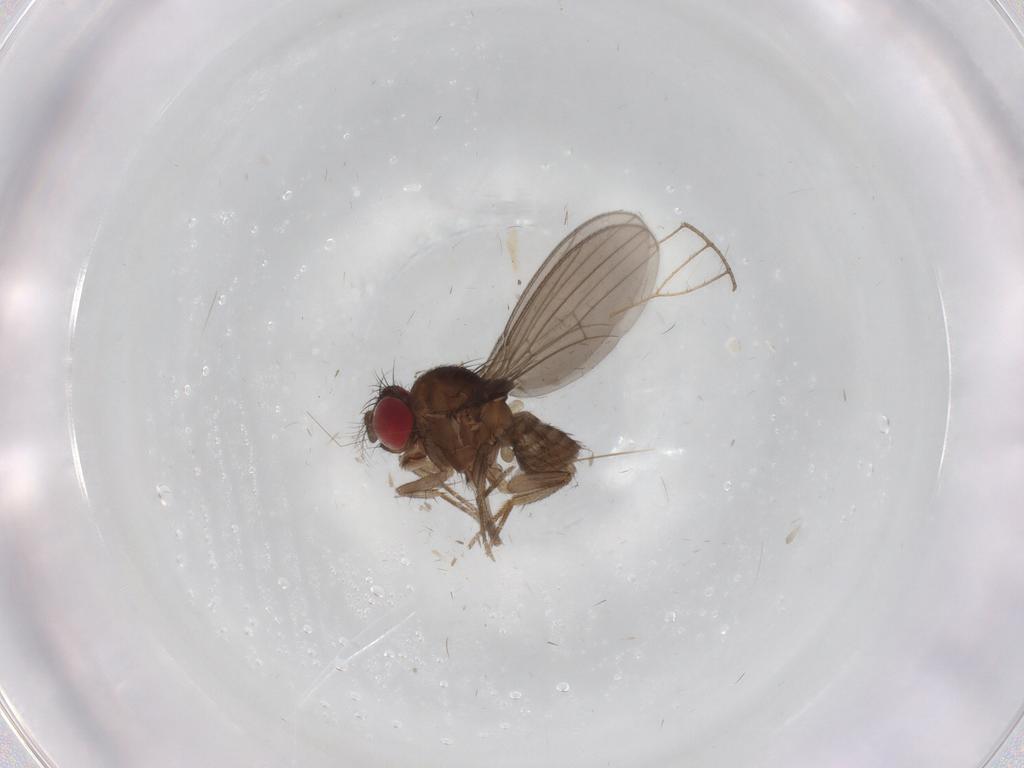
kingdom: Animalia
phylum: Arthropoda
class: Insecta
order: Diptera
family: Drosophilidae
